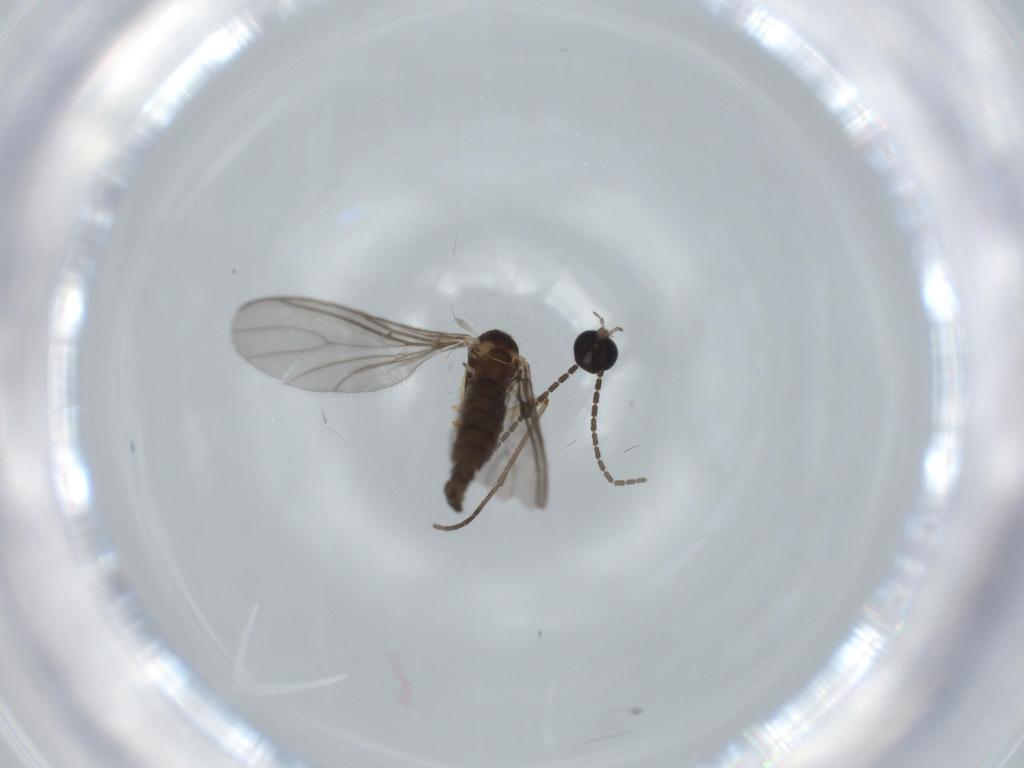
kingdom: Animalia
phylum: Arthropoda
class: Insecta
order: Diptera
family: Sciaridae
